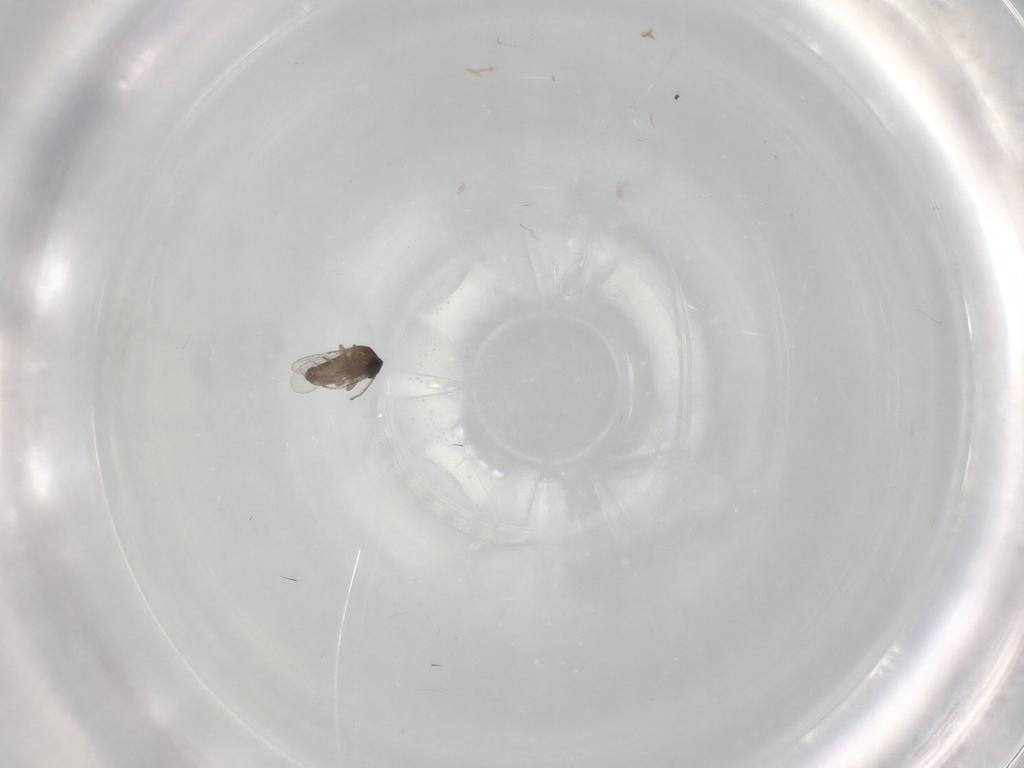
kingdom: Animalia
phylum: Arthropoda
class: Insecta
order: Diptera
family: Ceratopogonidae
